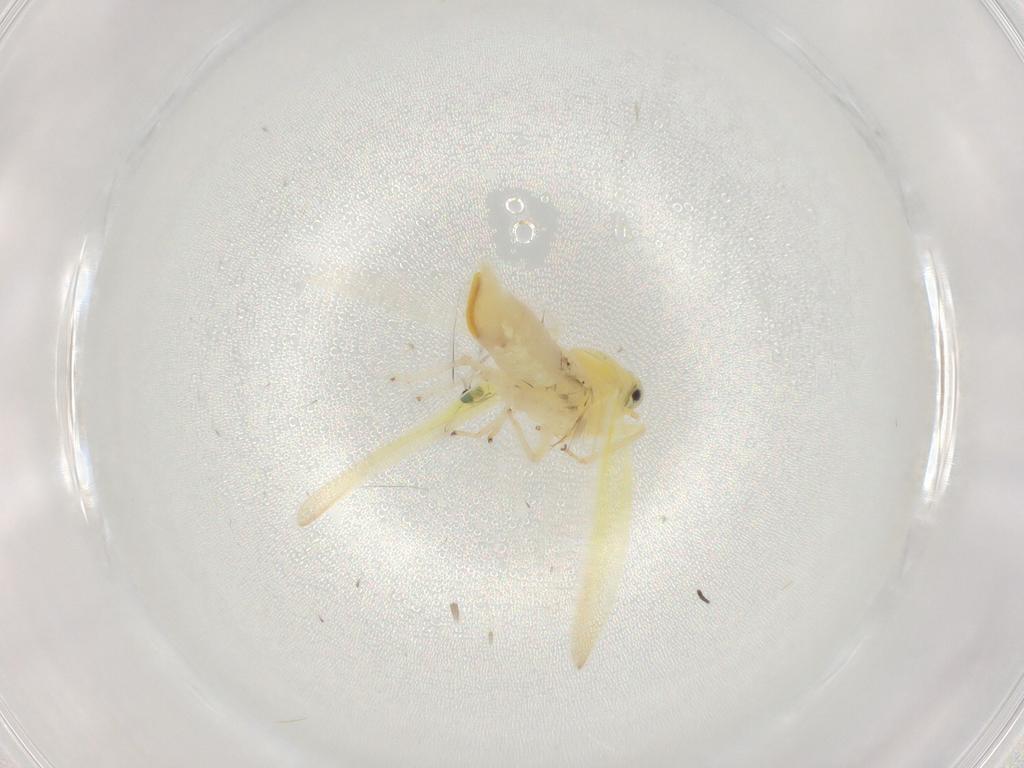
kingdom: Animalia
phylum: Arthropoda
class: Insecta
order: Hemiptera
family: Cicadellidae
